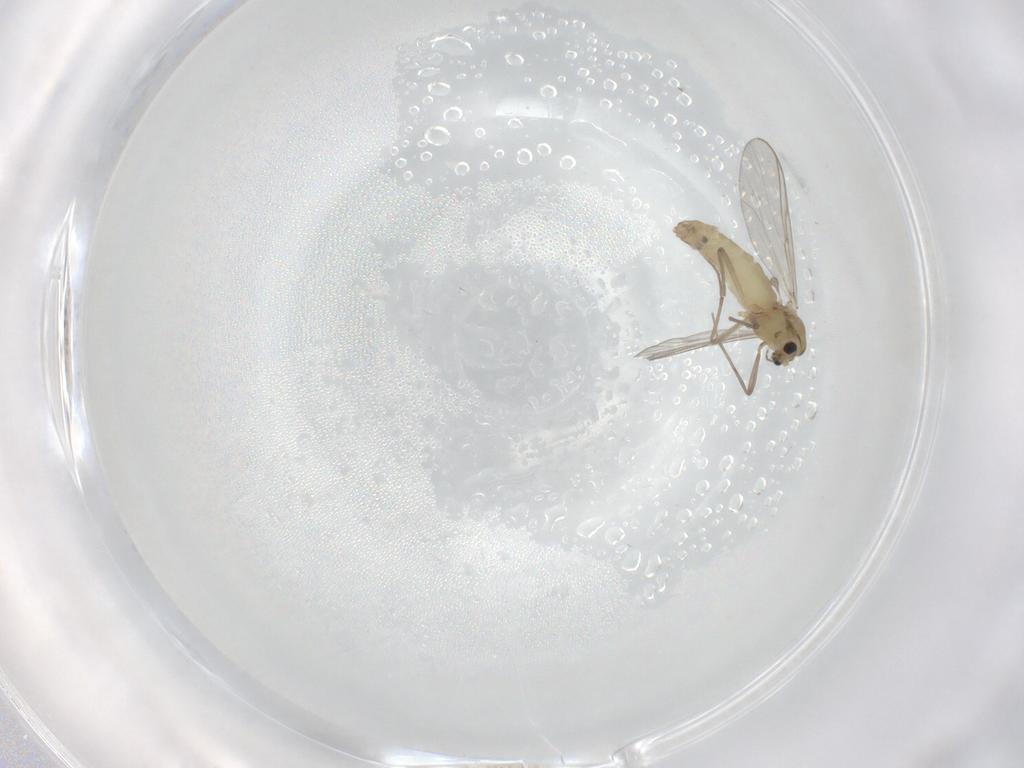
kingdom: Animalia
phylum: Arthropoda
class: Insecta
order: Diptera
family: Chironomidae
